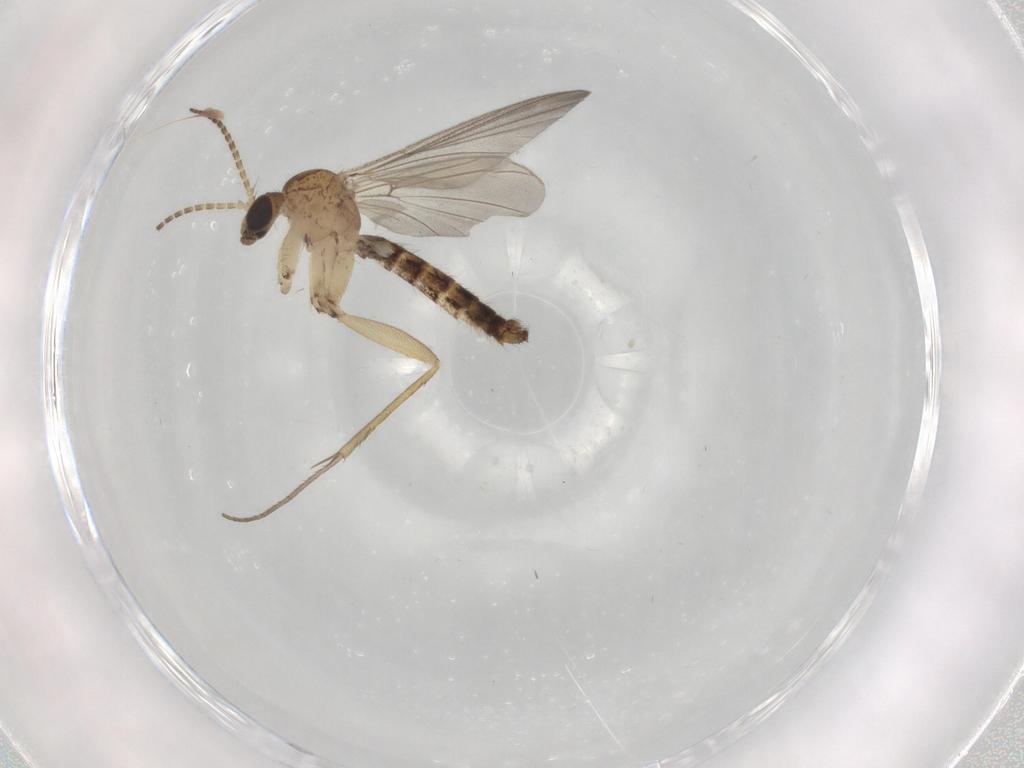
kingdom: Animalia
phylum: Arthropoda
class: Insecta
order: Diptera
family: Mycetophilidae
